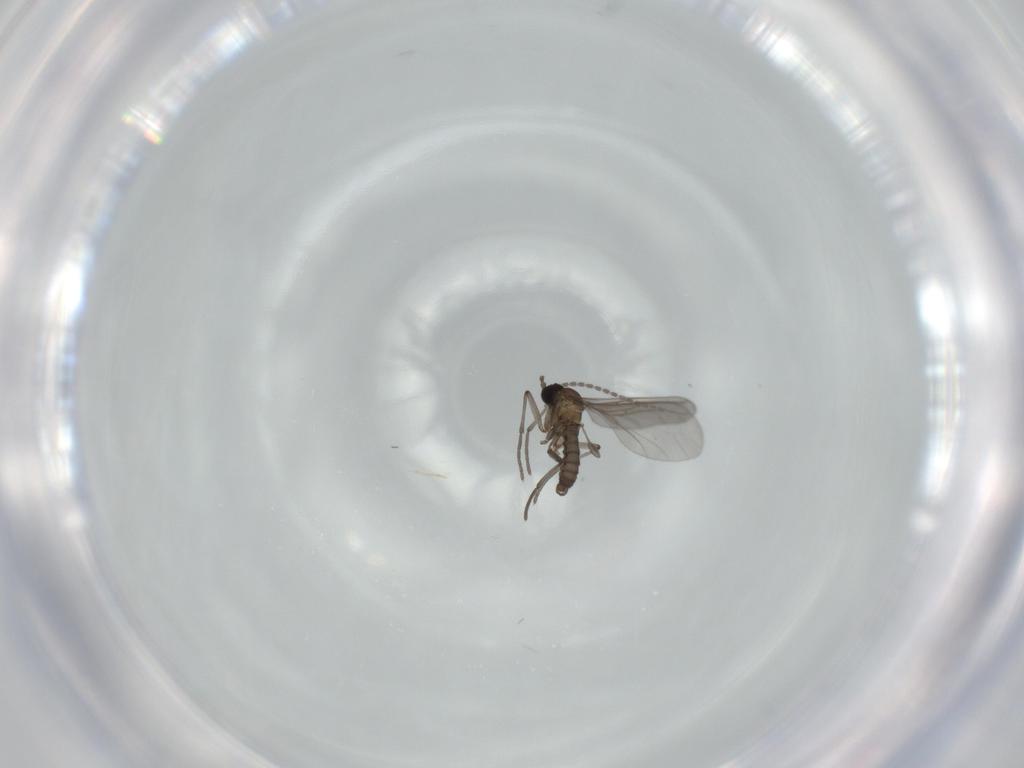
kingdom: Animalia
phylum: Arthropoda
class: Insecta
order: Diptera
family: Sciaridae
